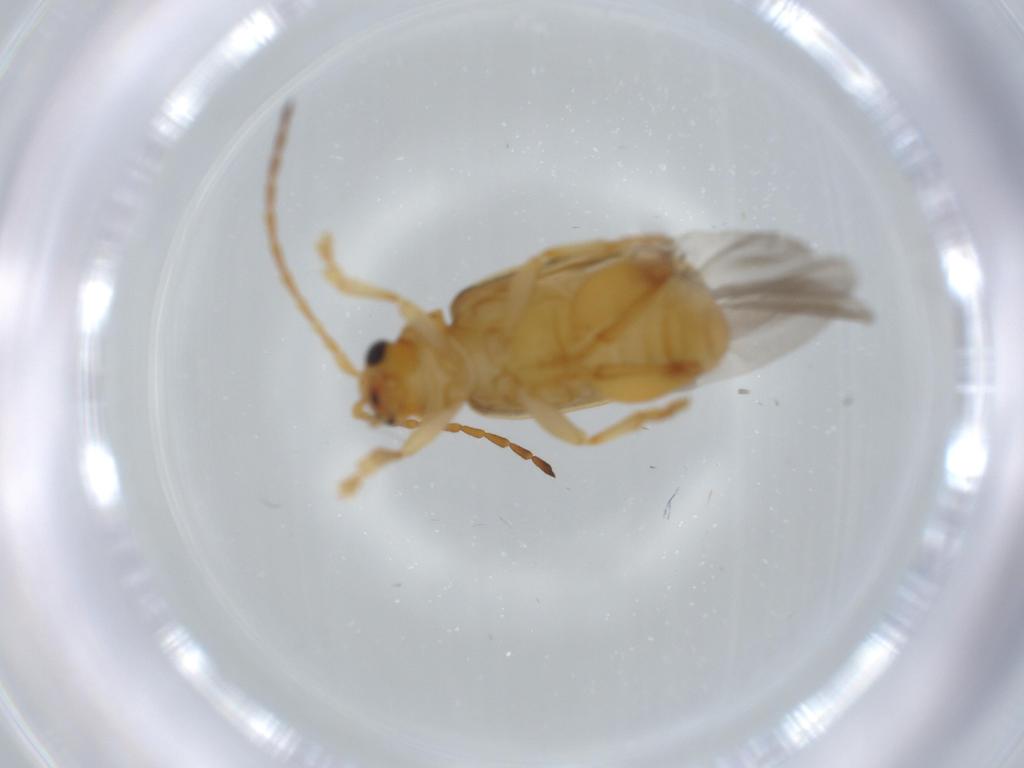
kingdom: Animalia
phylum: Arthropoda
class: Insecta
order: Coleoptera
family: Chrysomelidae
